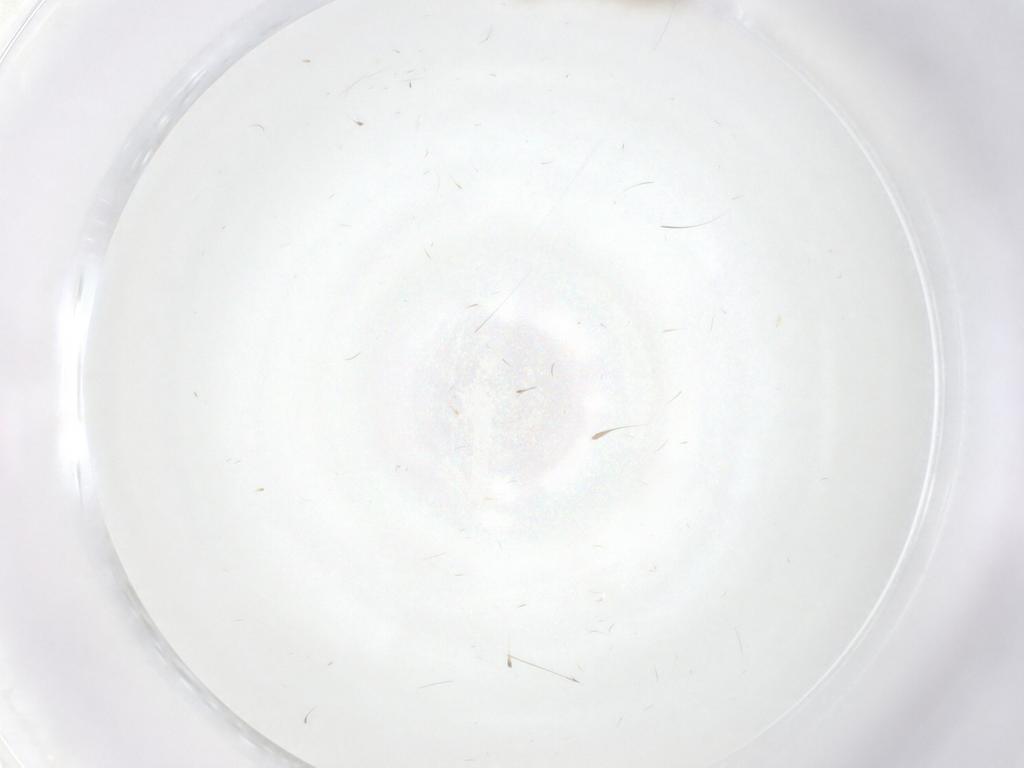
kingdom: Animalia
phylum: Arthropoda
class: Insecta
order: Diptera
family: Cecidomyiidae
